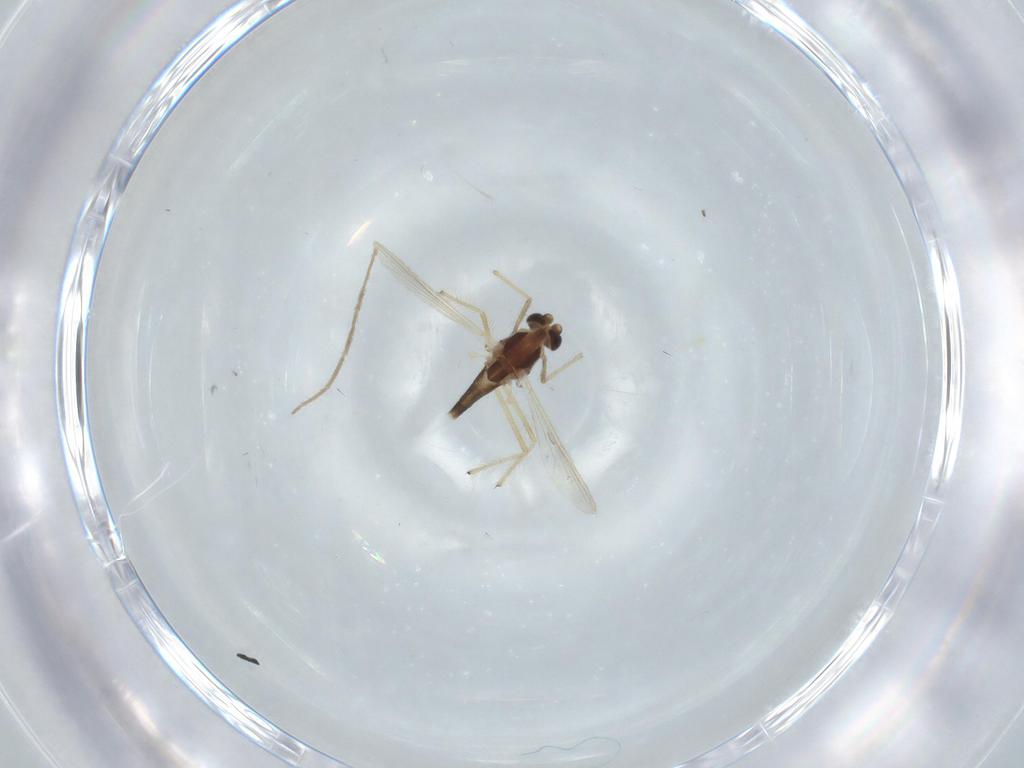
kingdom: Animalia
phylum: Arthropoda
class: Insecta
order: Diptera
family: Chironomidae
